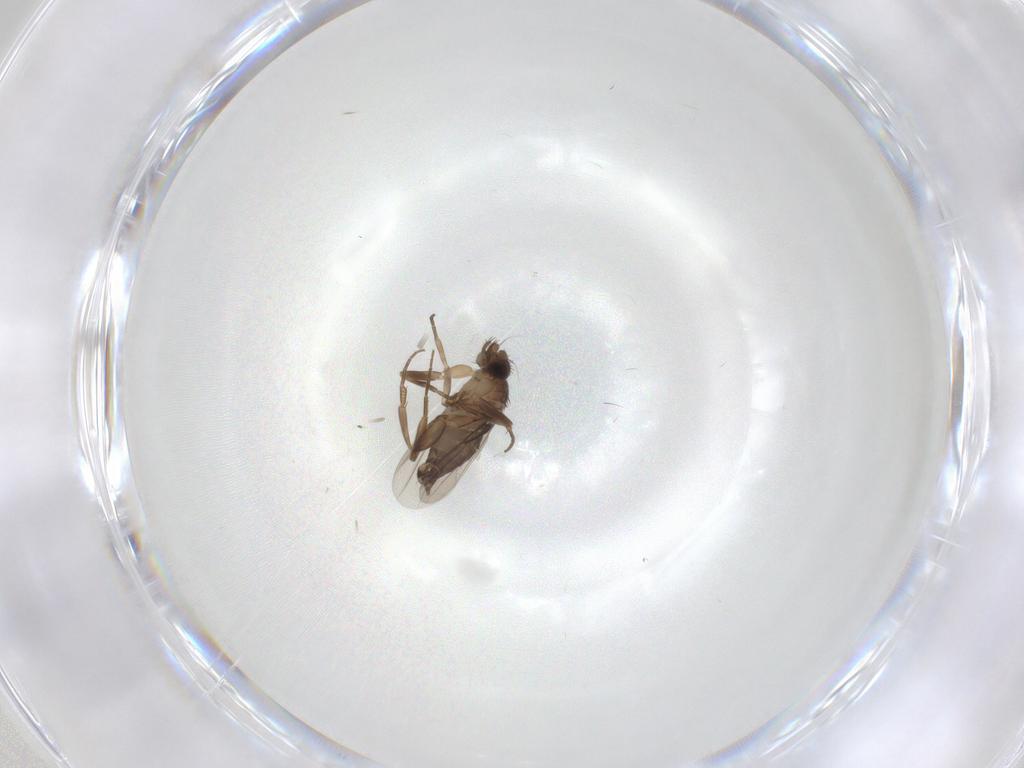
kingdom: Animalia
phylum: Arthropoda
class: Insecta
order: Diptera
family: Phoridae
